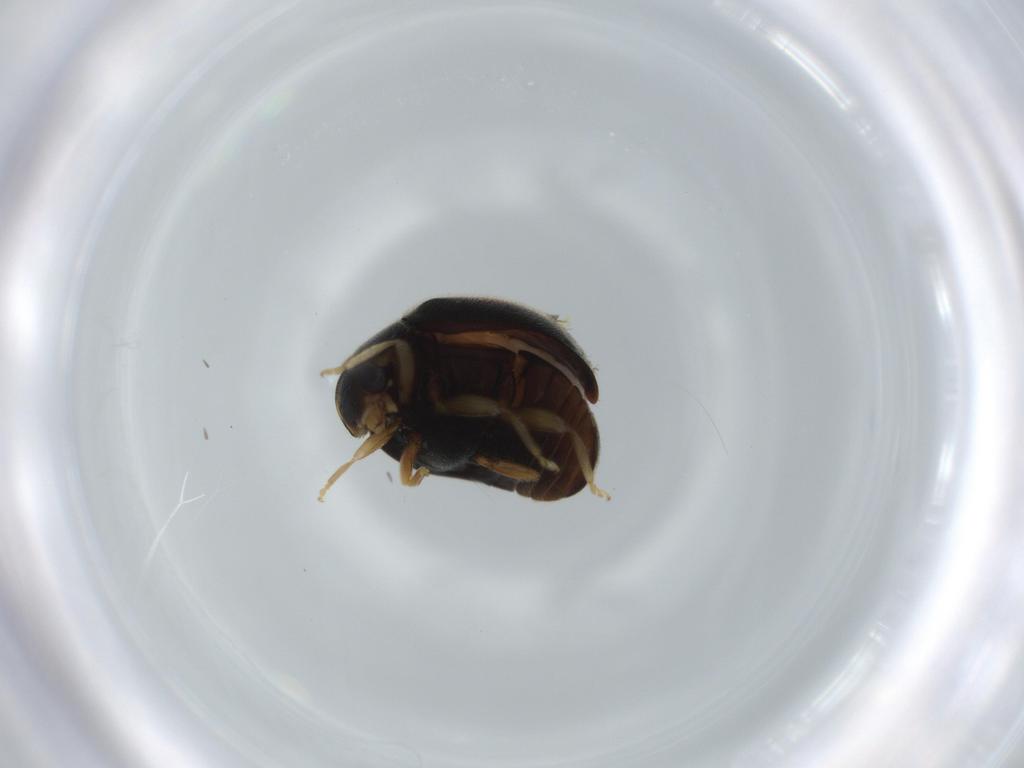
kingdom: Animalia
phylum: Arthropoda
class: Insecta
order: Coleoptera
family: Coccinellidae
